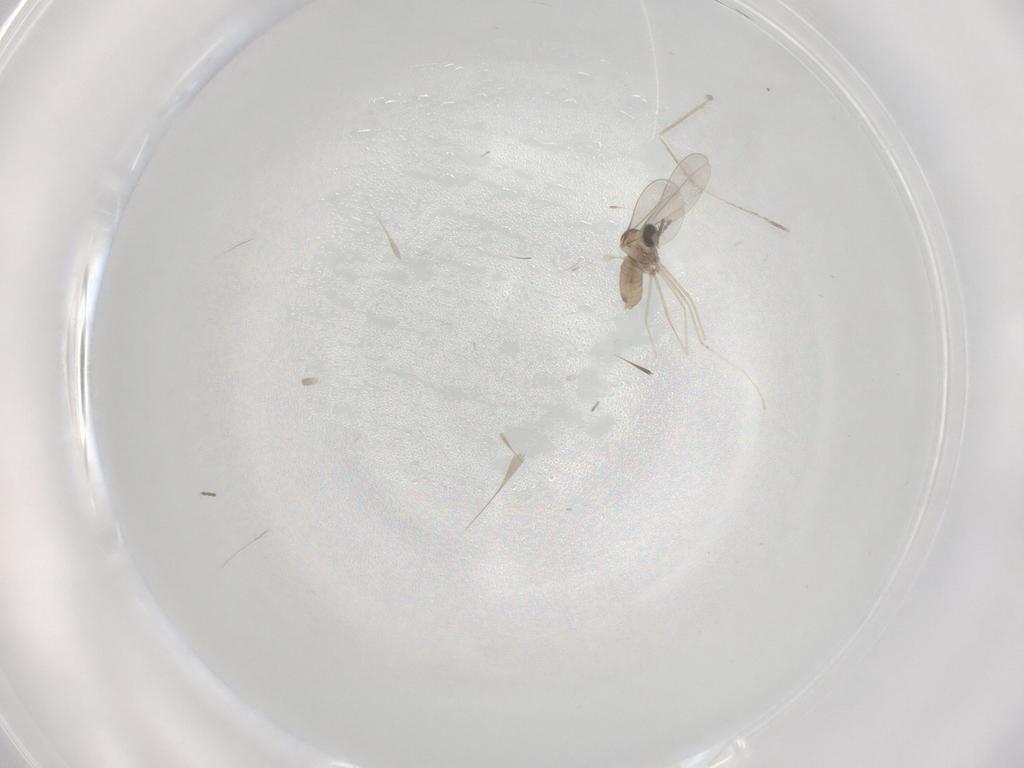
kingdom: Animalia
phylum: Arthropoda
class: Insecta
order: Diptera
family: Cecidomyiidae
